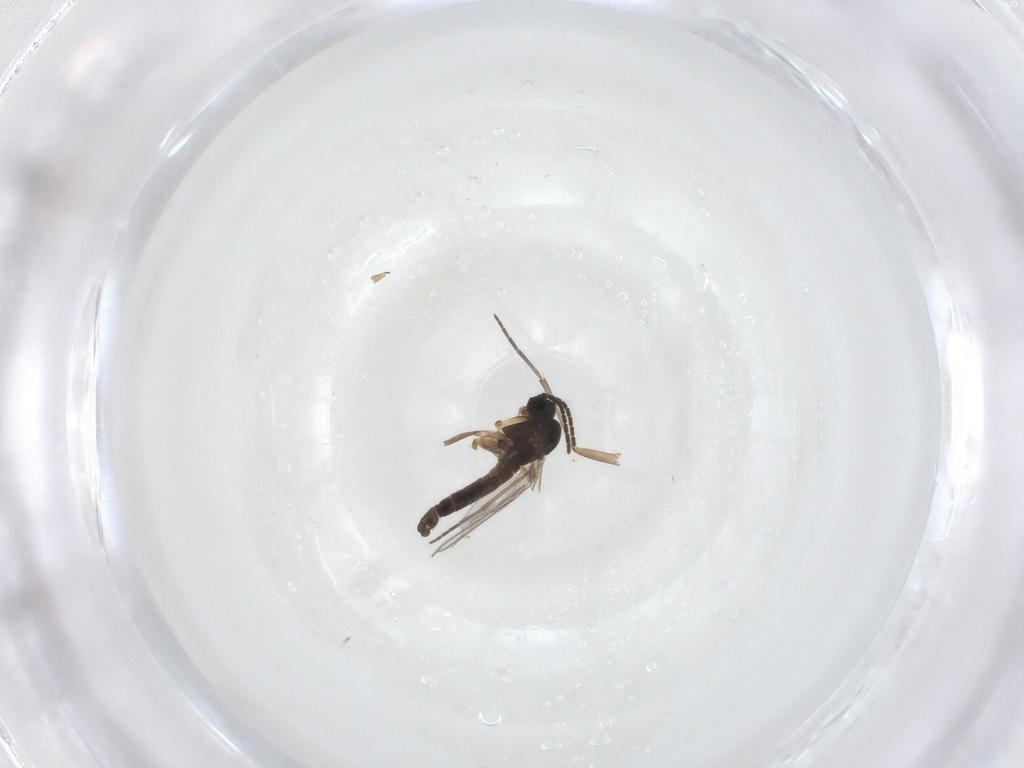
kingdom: Animalia
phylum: Arthropoda
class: Insecta
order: Diptera
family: Sciaridae
